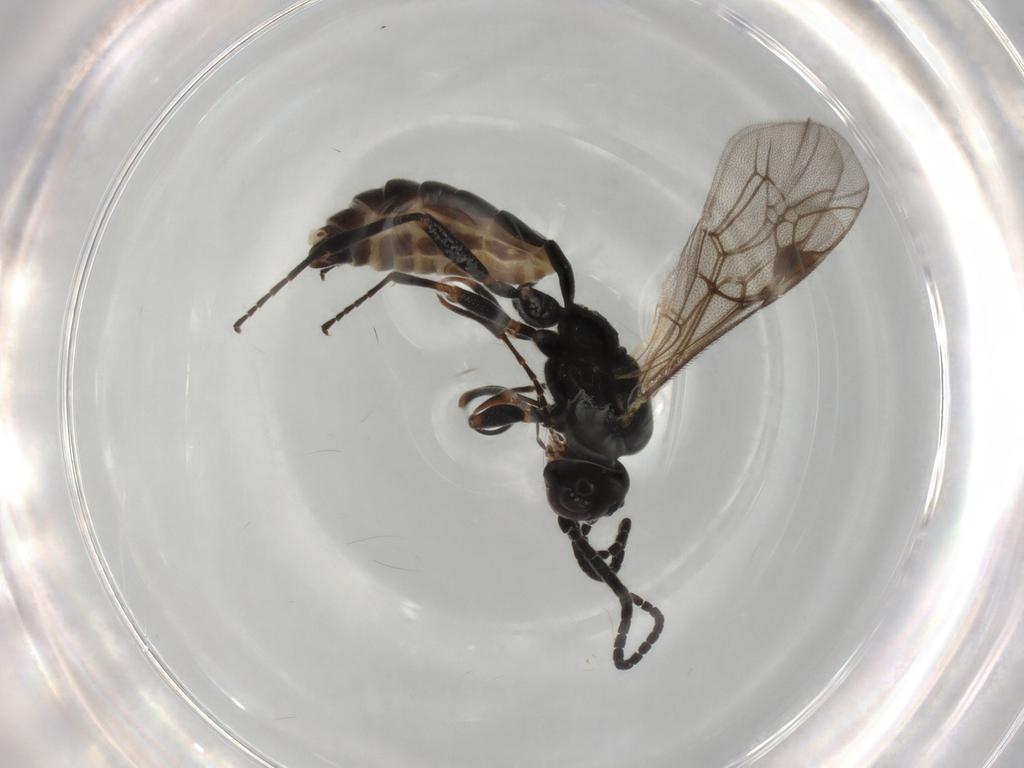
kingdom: Animalia
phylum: Arthropoda
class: Insecta
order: Hymenoptera
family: Ichneumonidae
